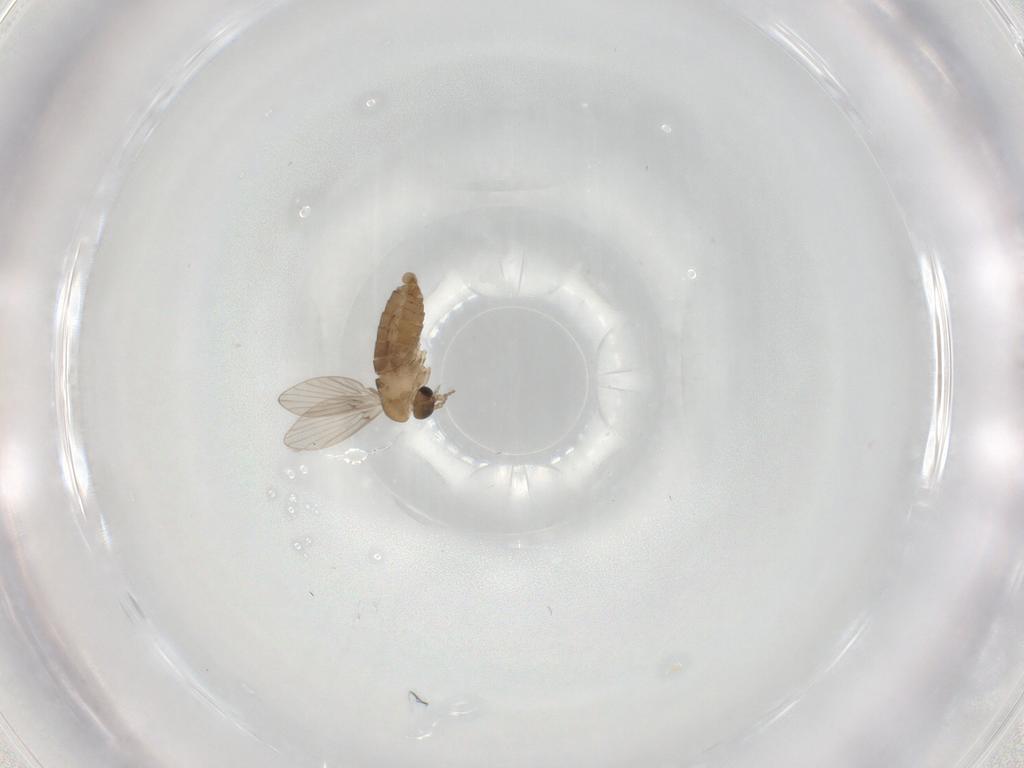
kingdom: Animalia
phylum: Arthropoda
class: Insecta
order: Diptera
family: Psychodidae
